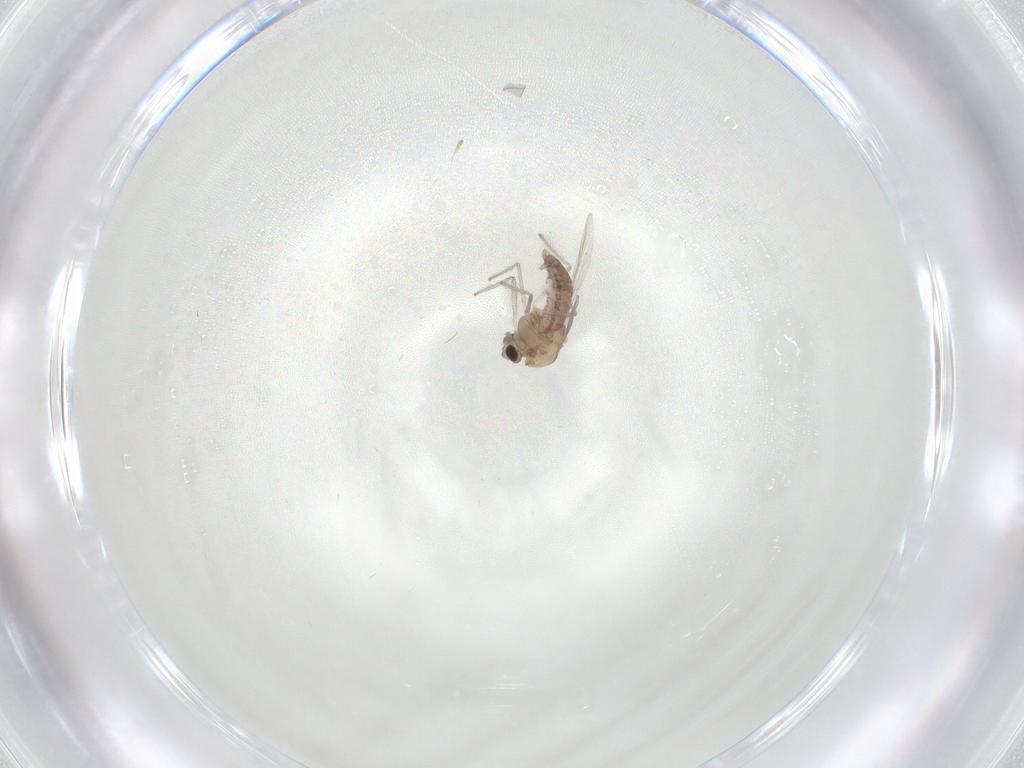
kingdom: Animalia
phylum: Arthropoda
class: Insecta
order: Diptera
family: Chironomidae
